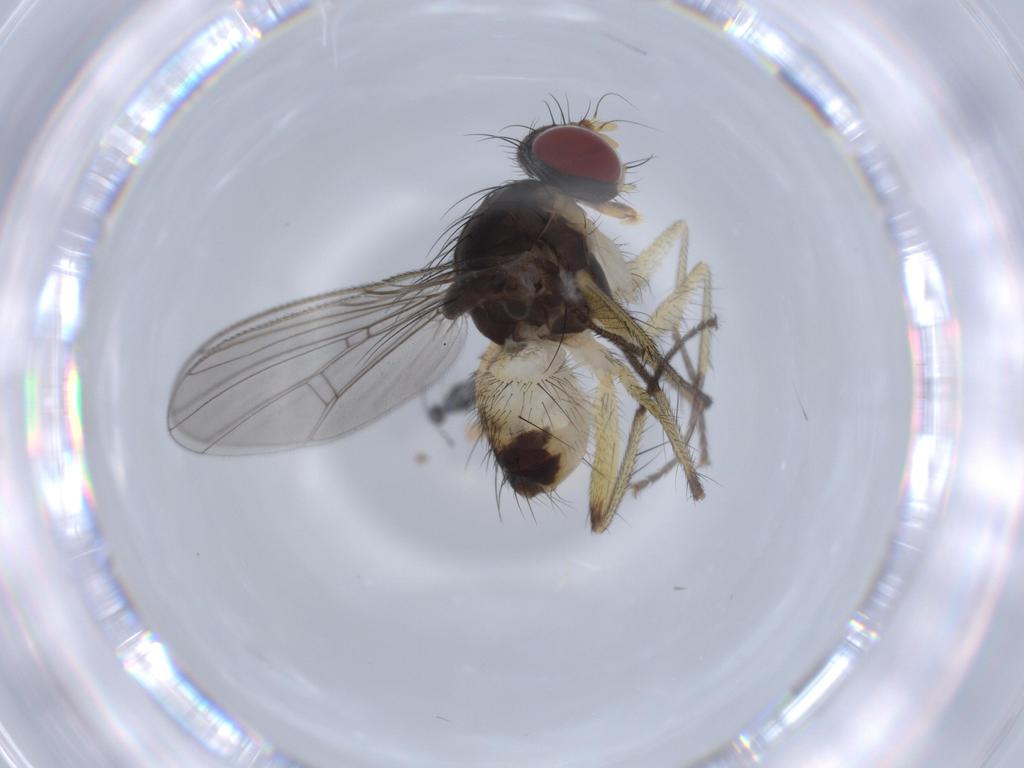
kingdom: Animalia
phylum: Arthropoda
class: Insecta
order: Diptera
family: Muscidae
